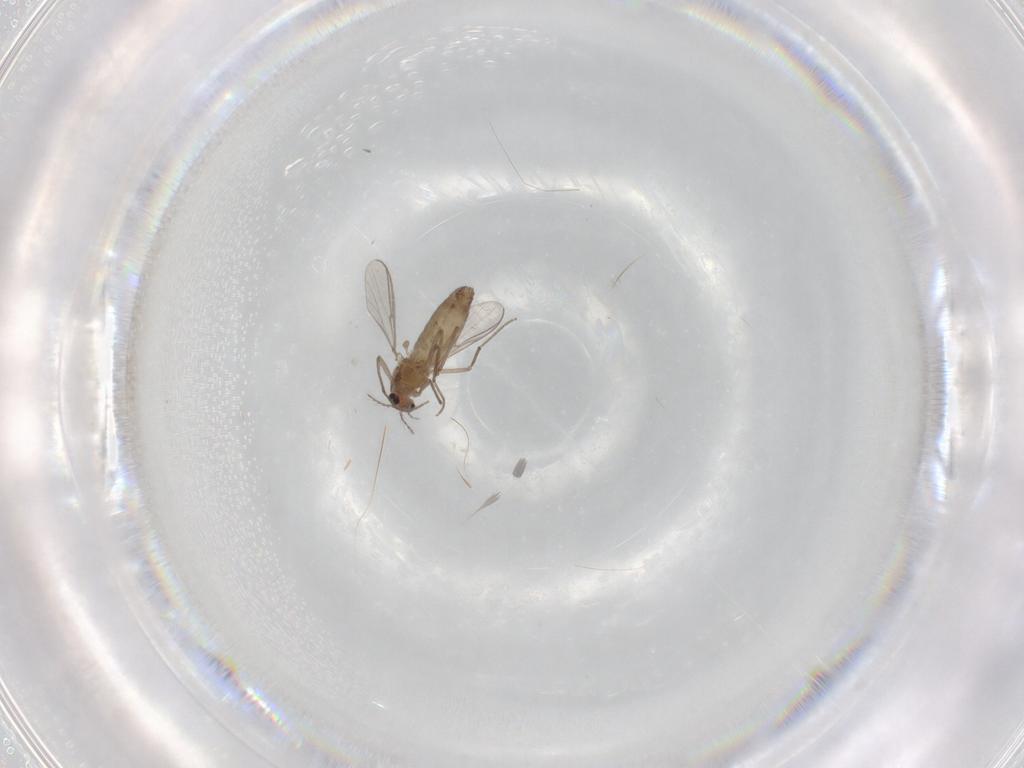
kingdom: Animalia
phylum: Arthropoda
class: Insecta
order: Diptera
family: Chironomidae
